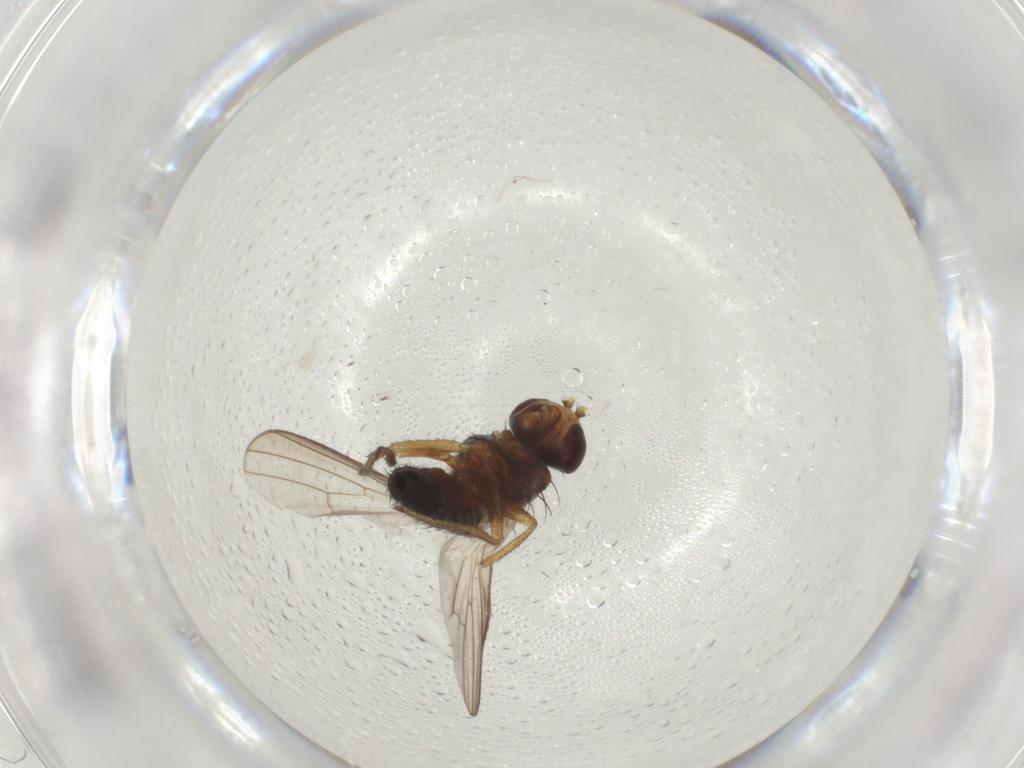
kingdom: Animalia
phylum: Arthropoda
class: Insecta
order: Diptera
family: Heleomyzidae
